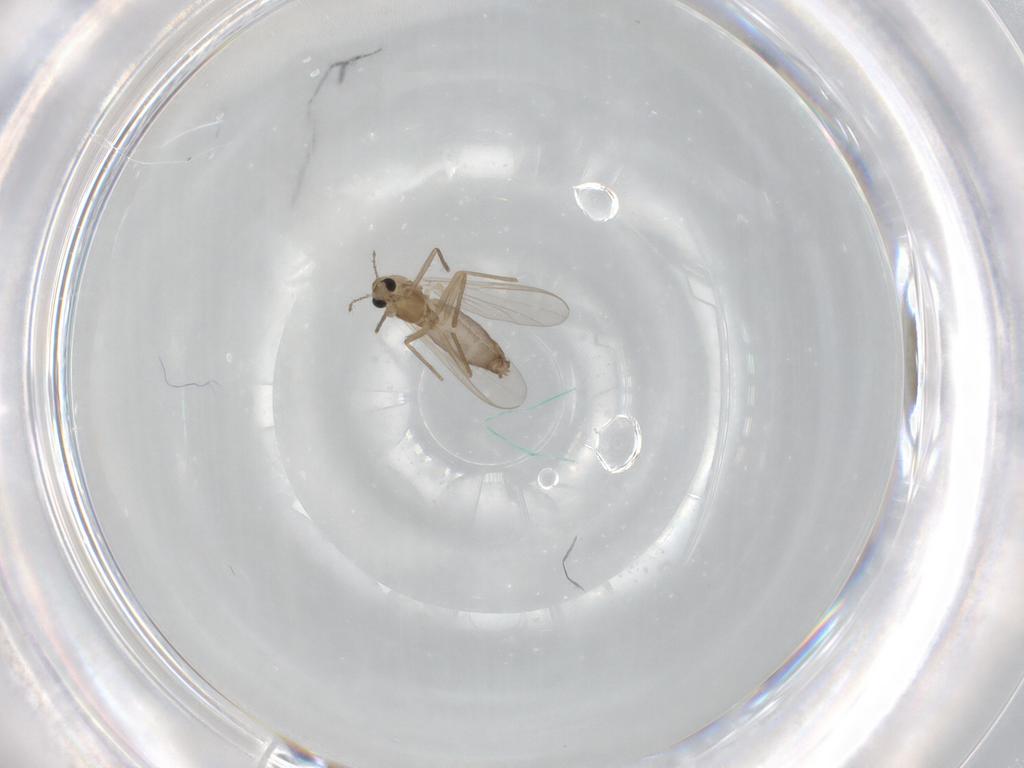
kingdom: Animalia
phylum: Arthropoda
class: Insecta
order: Diptera
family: Chironomidae
